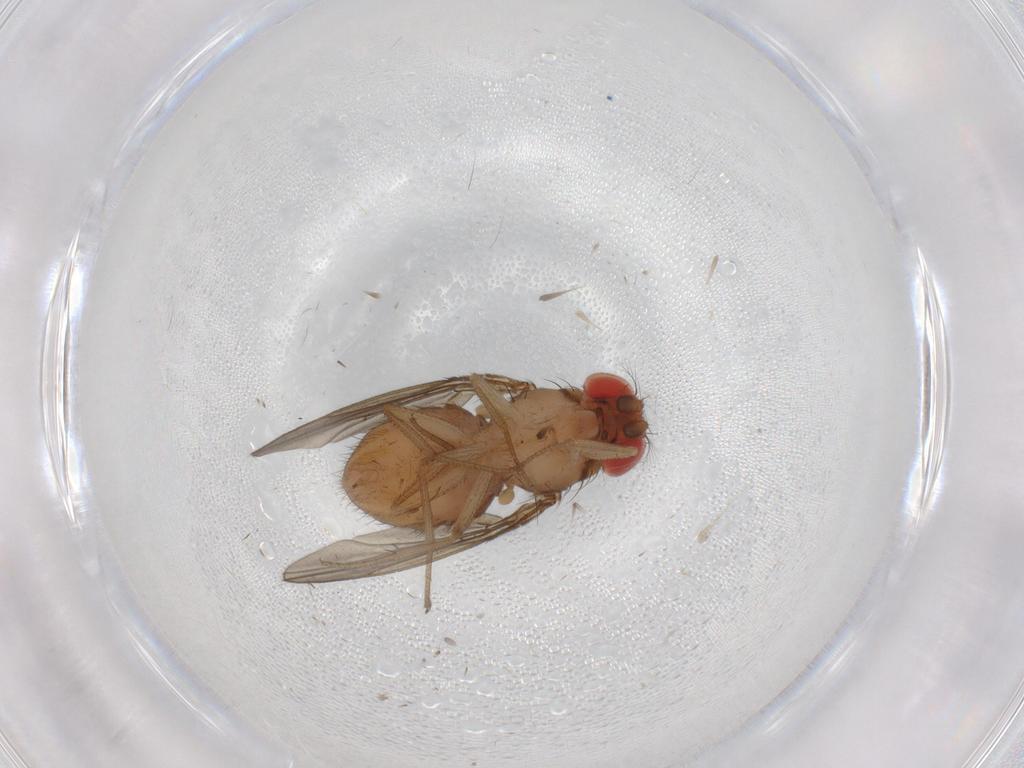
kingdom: Animalia
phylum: Arthropoda
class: Insecta
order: Diptera
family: Drosophilidae
